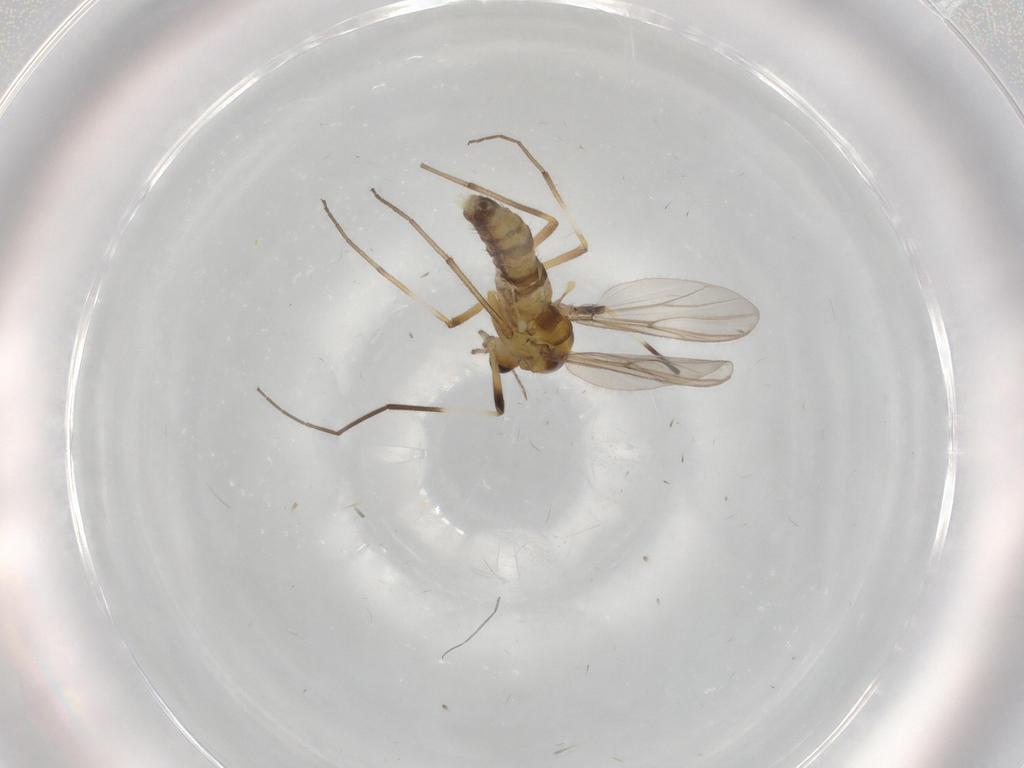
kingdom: Animalia
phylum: Arthropoda
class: Insecta
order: Diptera
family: Chironomidae
